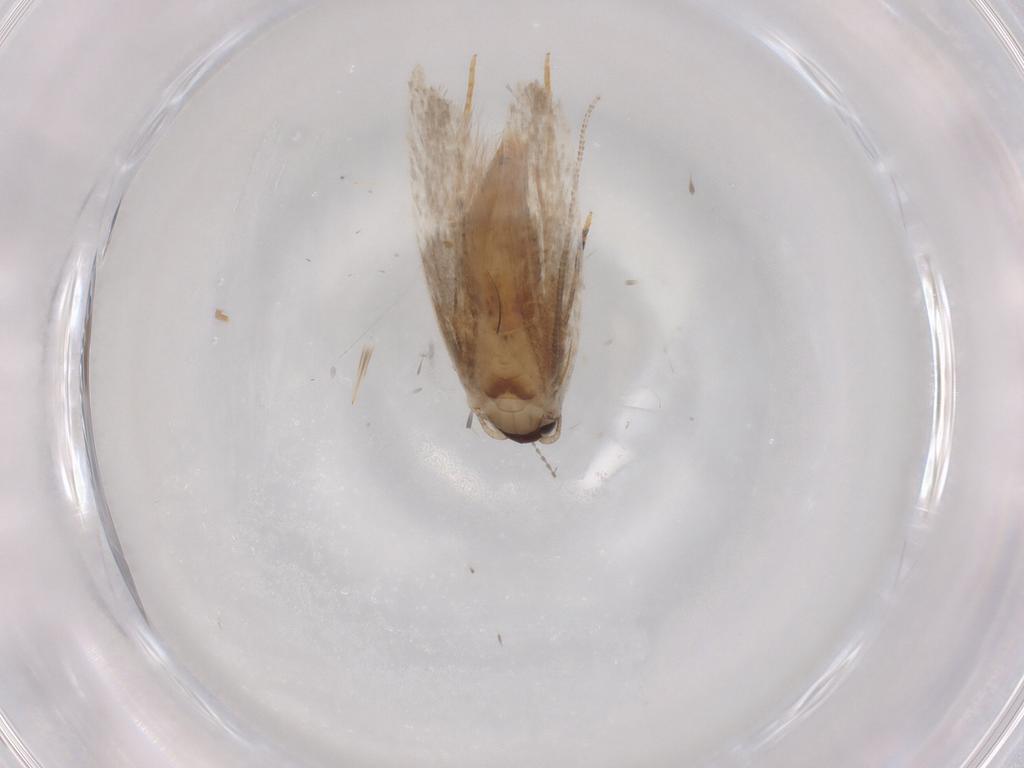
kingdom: Animalia
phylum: Arthropoda
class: Insecta
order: Lepidoptera
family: Tineidae
